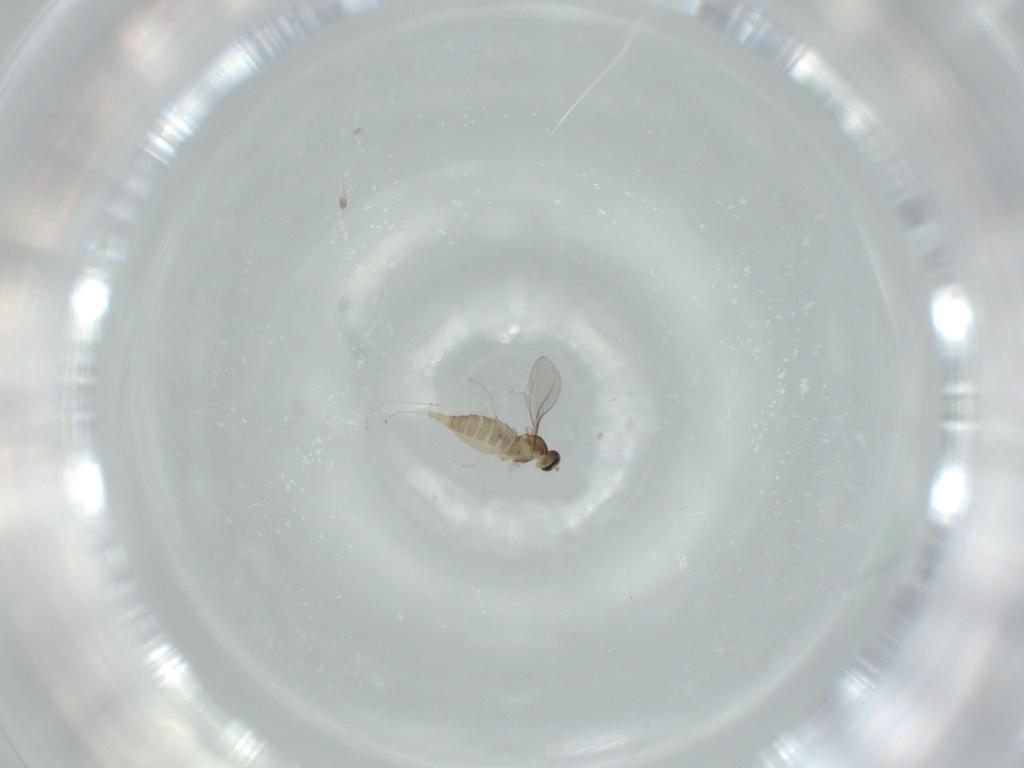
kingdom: Animalia
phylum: Arthropoda
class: Insecta
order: Diptera
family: Cecidomyiidae
